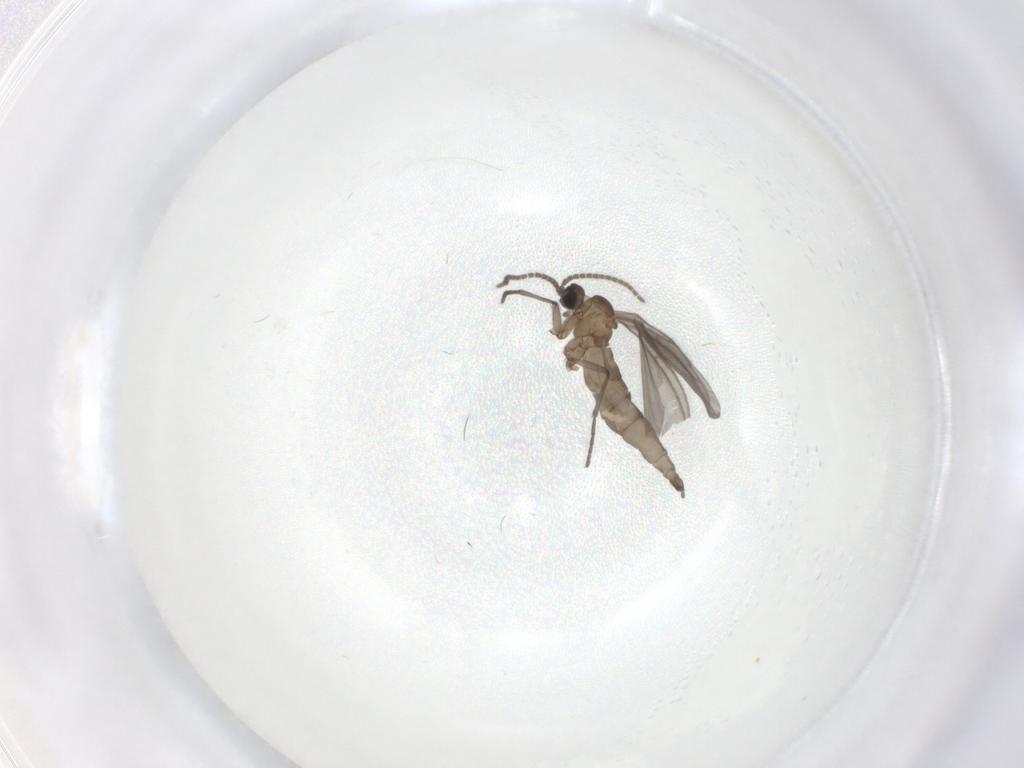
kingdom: Animalia
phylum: Arthropoda
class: Insecta
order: Diptera
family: Sciaridae
